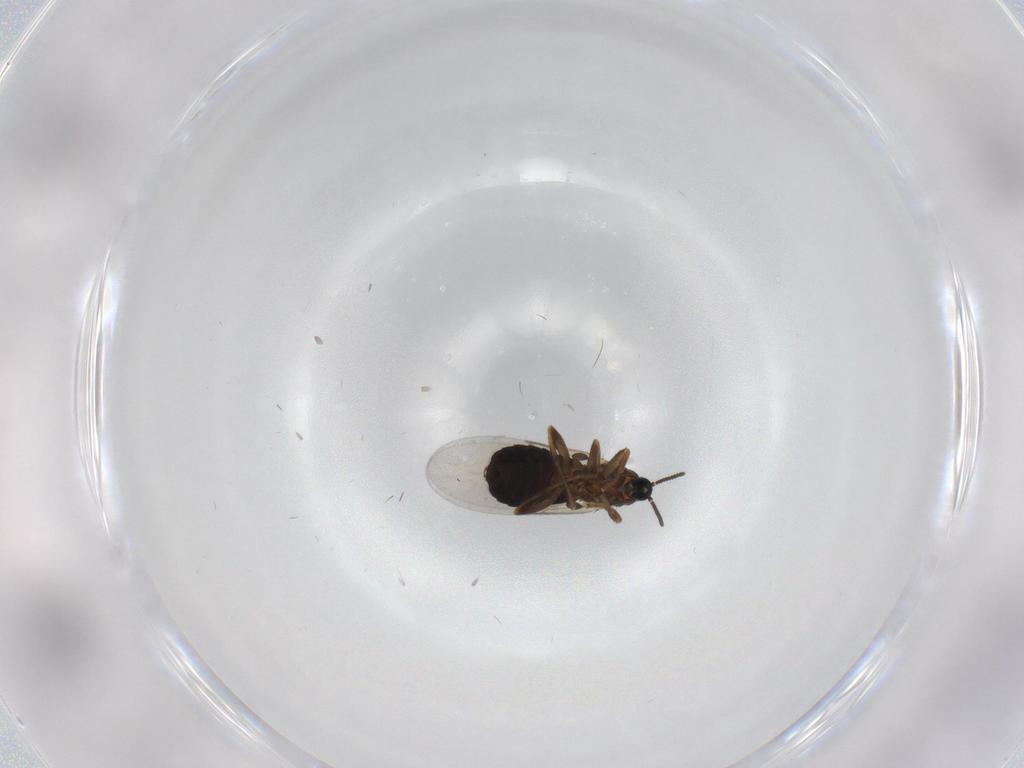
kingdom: Animalia
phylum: Arthropoda
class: Insecta
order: Diptera
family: Scatopsidae
